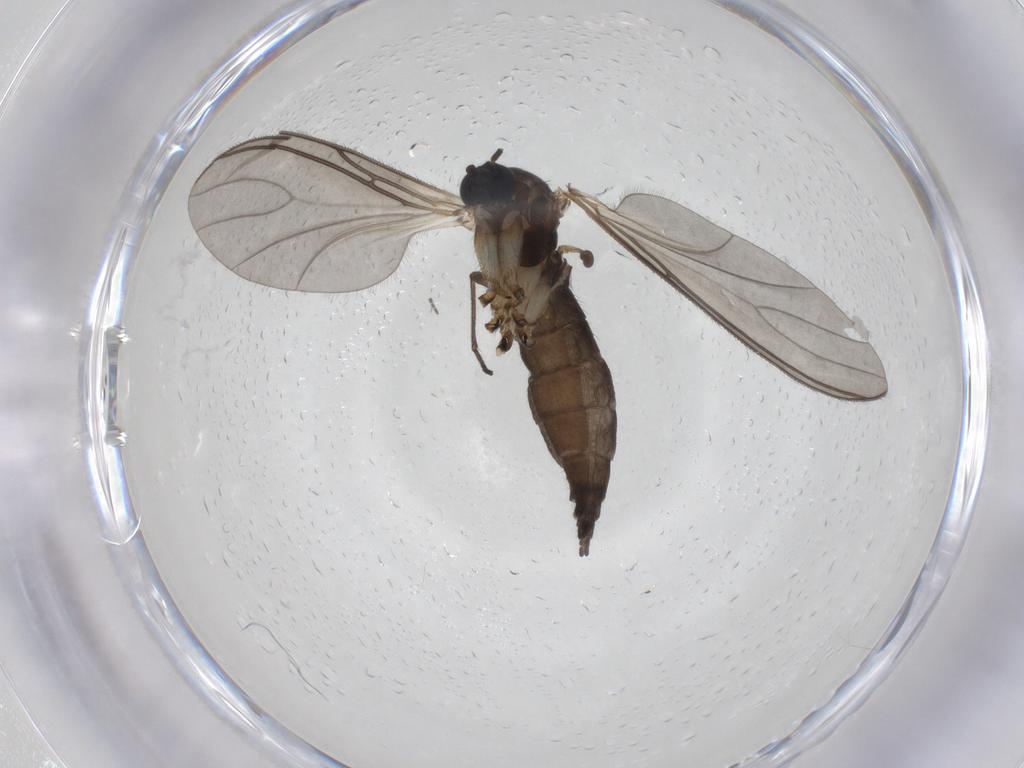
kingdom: Animalia
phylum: Arthropoda
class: Insecta
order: Diptera
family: Sciaridae
